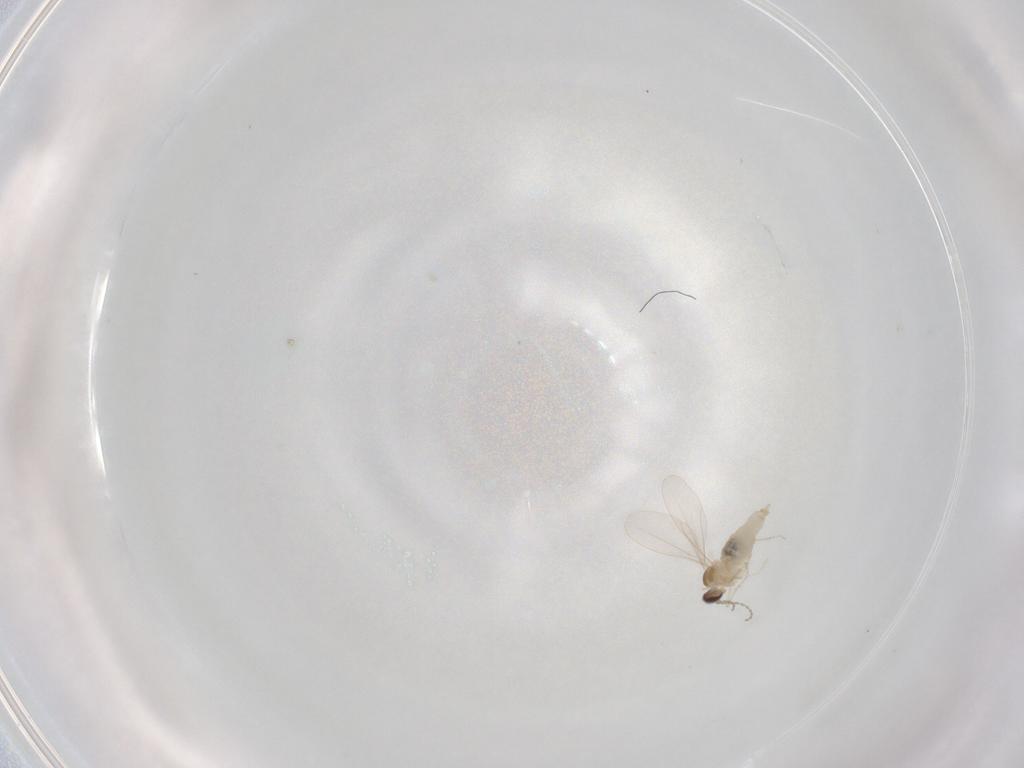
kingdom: Animalia
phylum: Arthropoda
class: Insecta
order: Diptera
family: Cecidomyiidae
